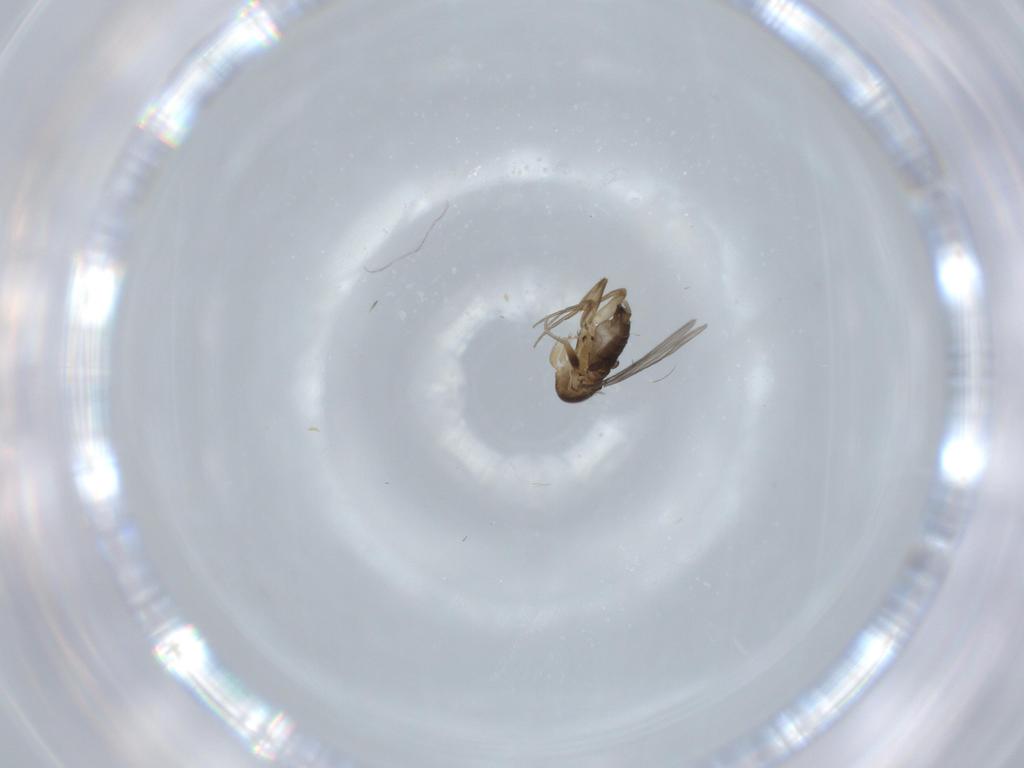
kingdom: Animalia
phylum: Arthropoda
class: Insecta
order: Diptera
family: Phoridae
